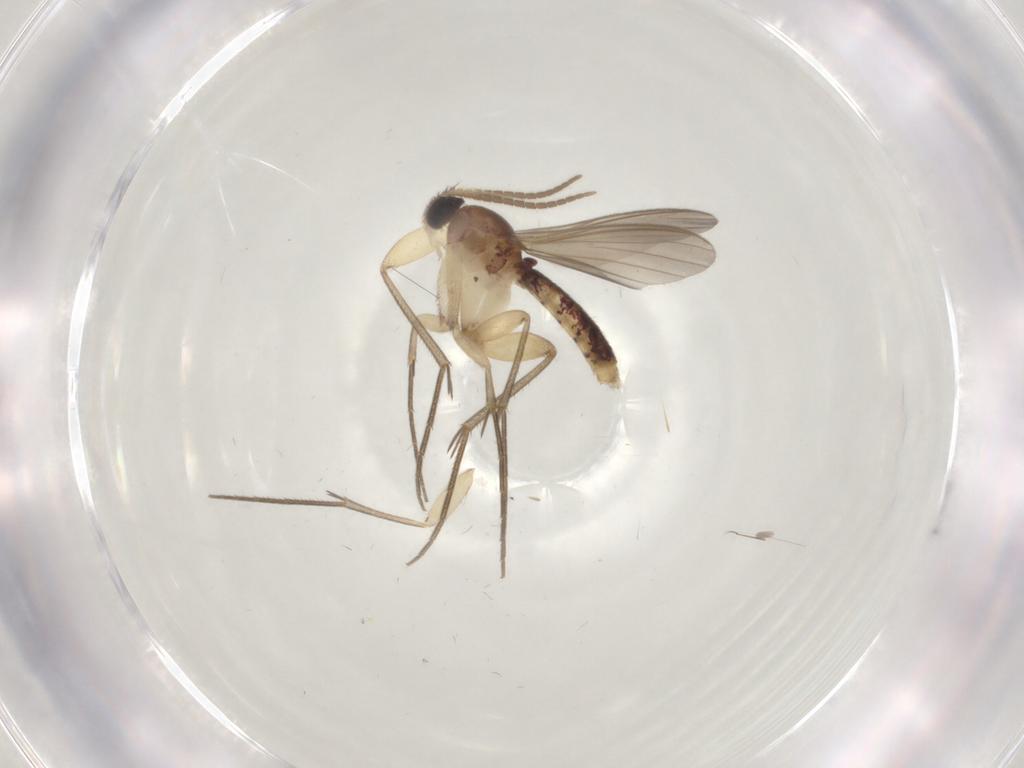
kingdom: Animalia
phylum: Arthropoda
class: Insecta
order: Diptera
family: Mycetophilidae
